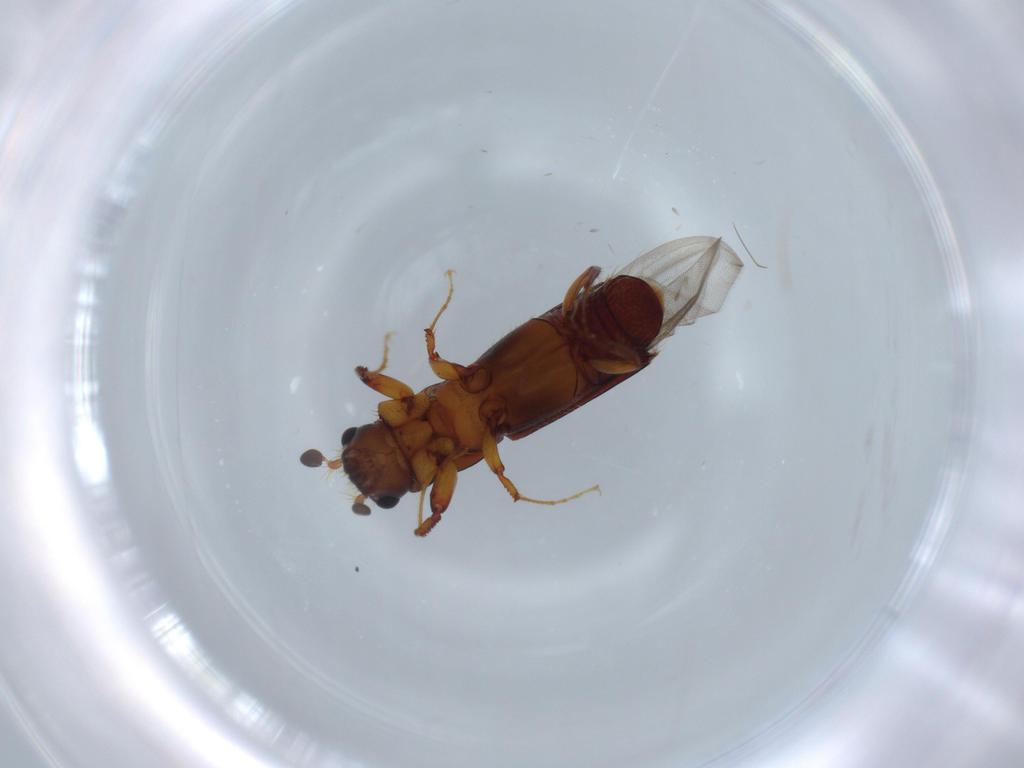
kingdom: Animalia
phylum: Arthropoda
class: Insecta
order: Coleoptera
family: Curculionidae
